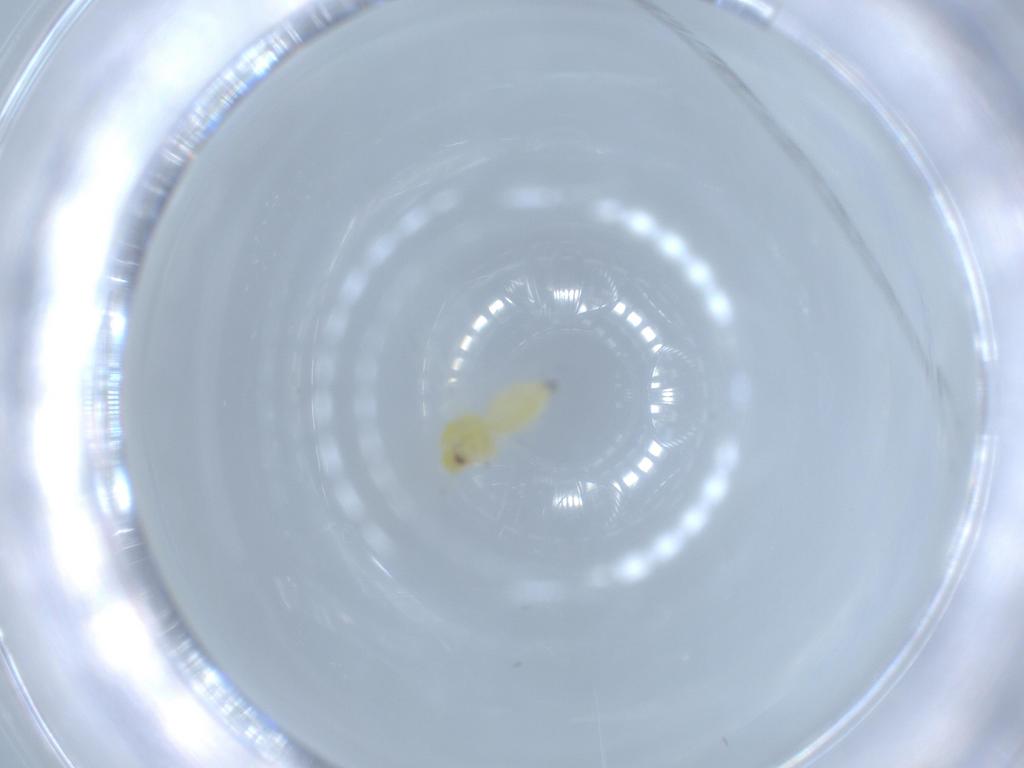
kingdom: Animalia
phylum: Arthropoda
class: Insecta
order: Hemiptera
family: Aleyrodidae
